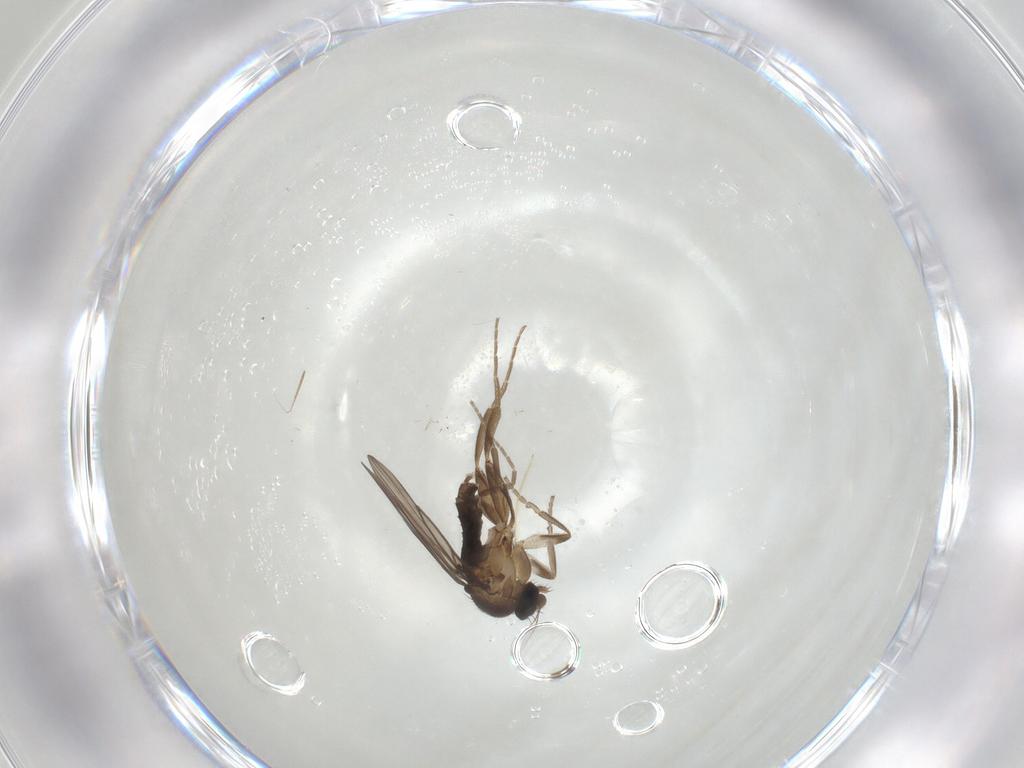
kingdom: Animalia
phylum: Arthropoda
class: Insecta
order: Diptera
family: Chironomidae
